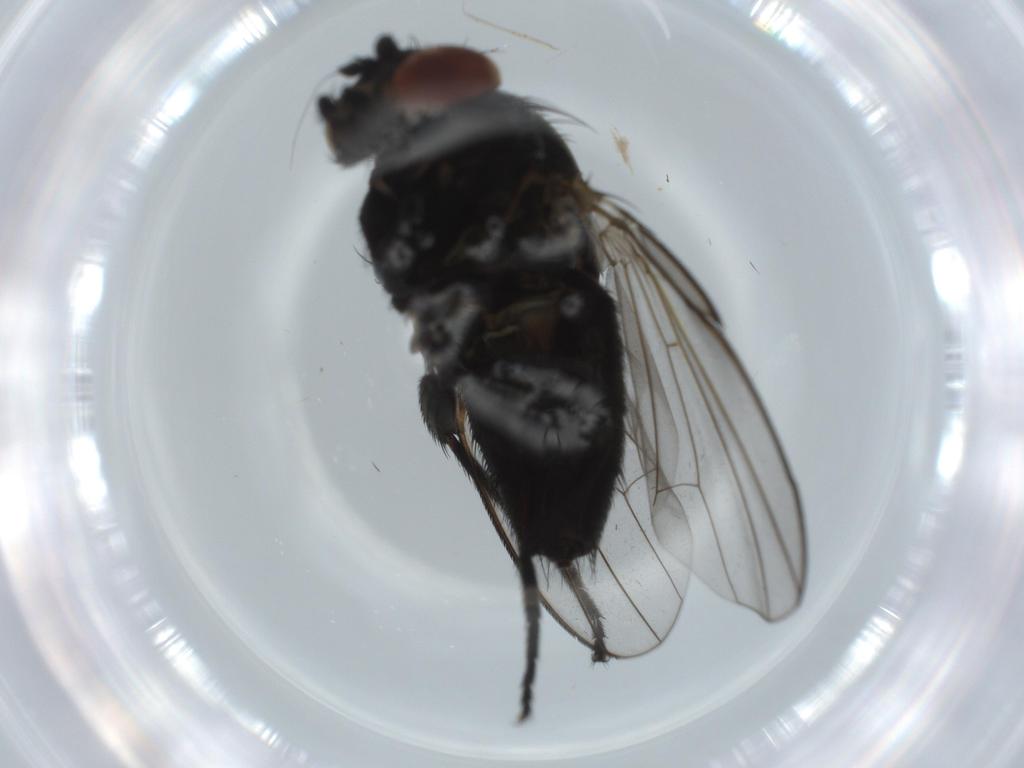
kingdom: Animalia
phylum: Arthropoda
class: Insecta
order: Diptera
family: Milichiidae
